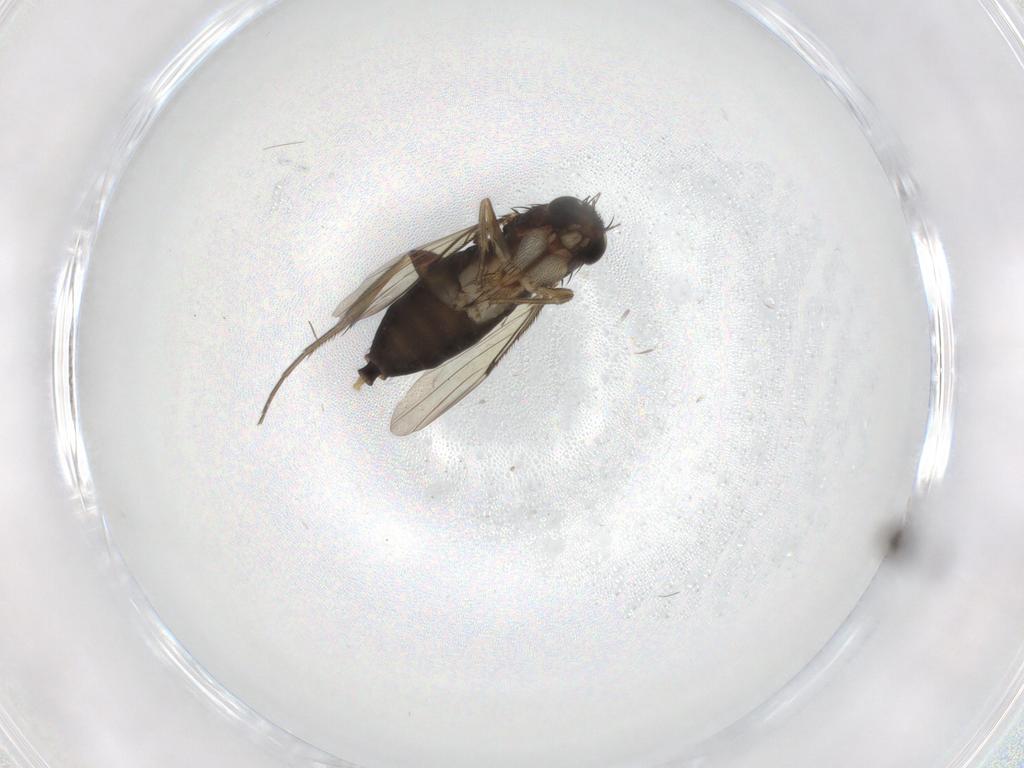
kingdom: Animalia
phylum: Arthropoda
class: Insecta
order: Diptera
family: Phoridae
